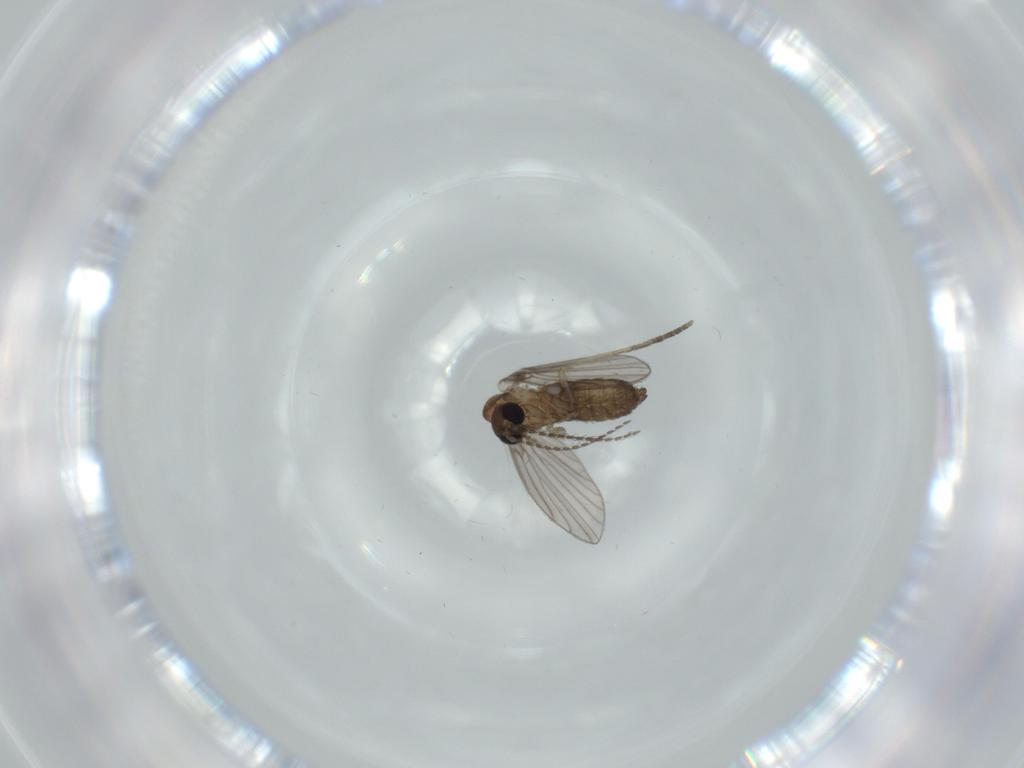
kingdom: Animalia
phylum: Arthropoda
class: Insecta
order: Diptera
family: Psychodidae
